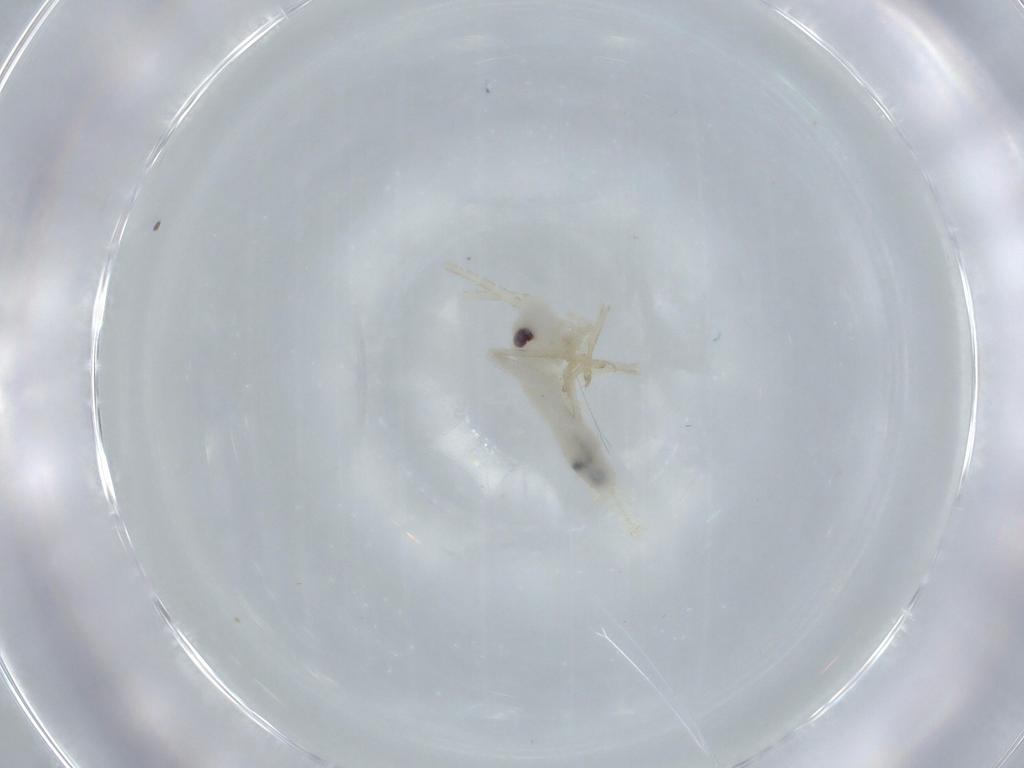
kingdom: Animalia
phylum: Arthropoda
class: Insecta
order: Orthoptera
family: Trigonidiidae
